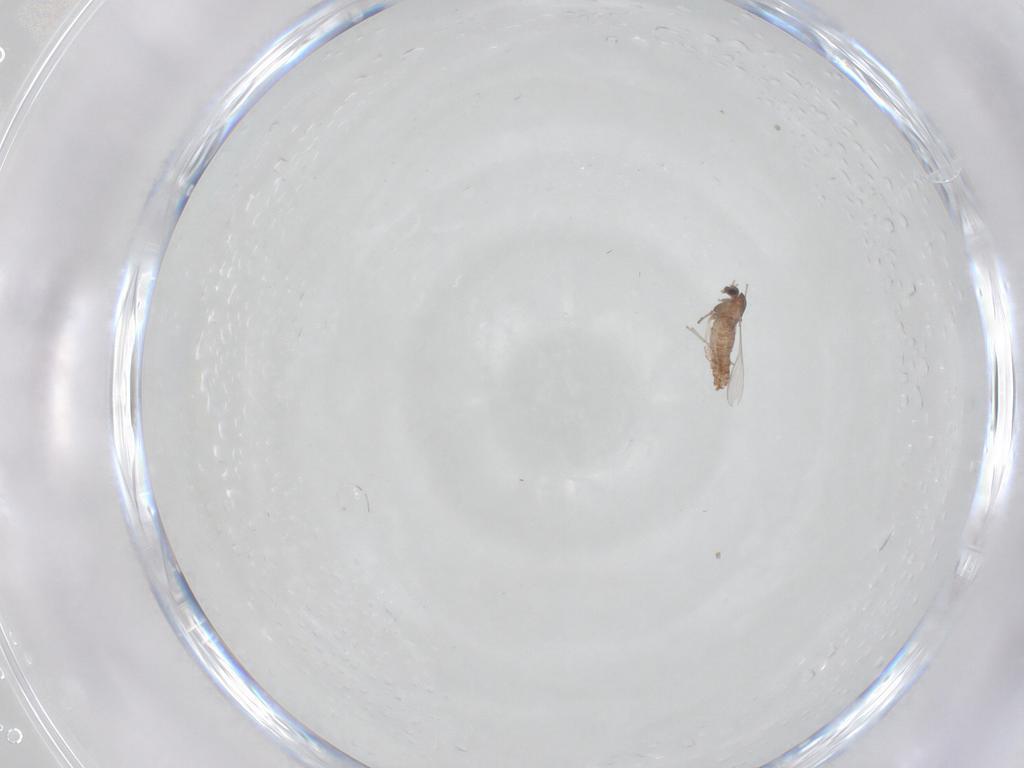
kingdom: Animalia
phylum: Arthropoda
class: Insecta
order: Diptera
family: Chironomidae
